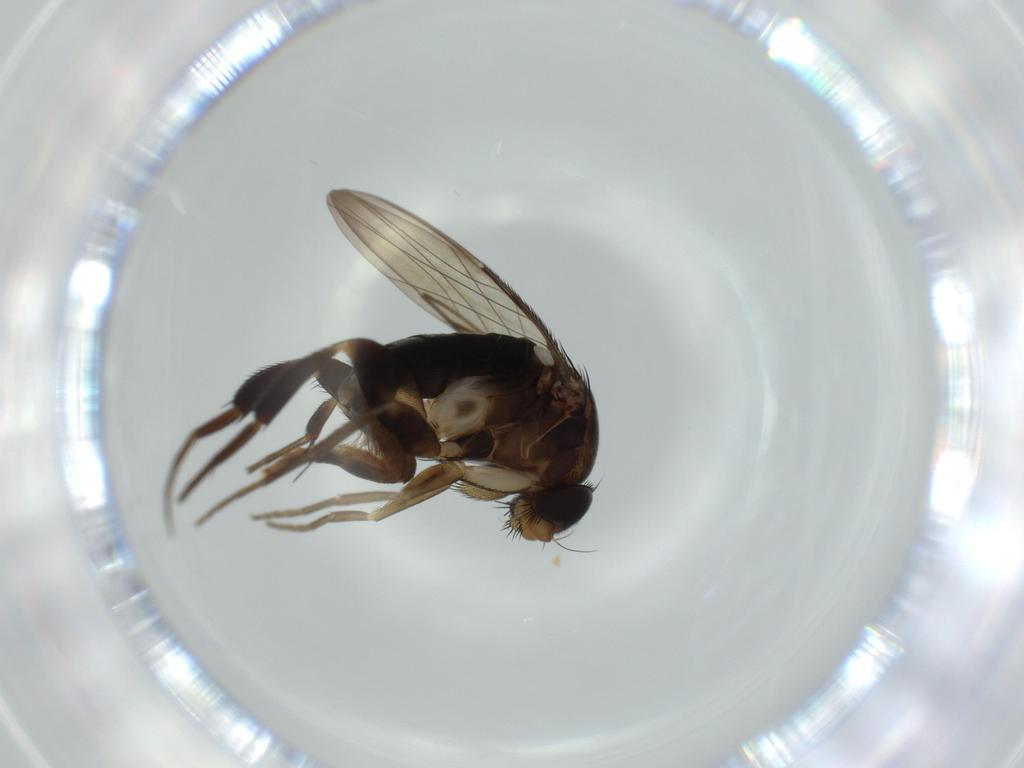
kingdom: Animalia
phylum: Arthropoda
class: Insecta
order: Diptera
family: Phoridae
